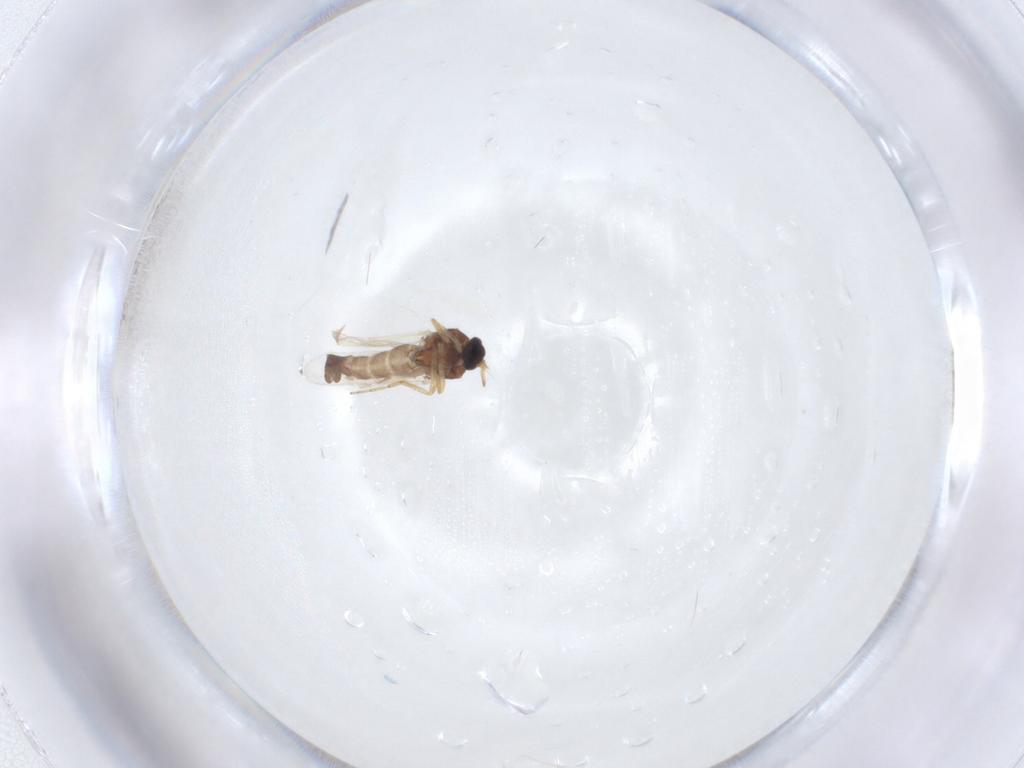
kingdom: Animalia
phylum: Arthropoda
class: Insecta
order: Diptera
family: Ceratopogonidae
